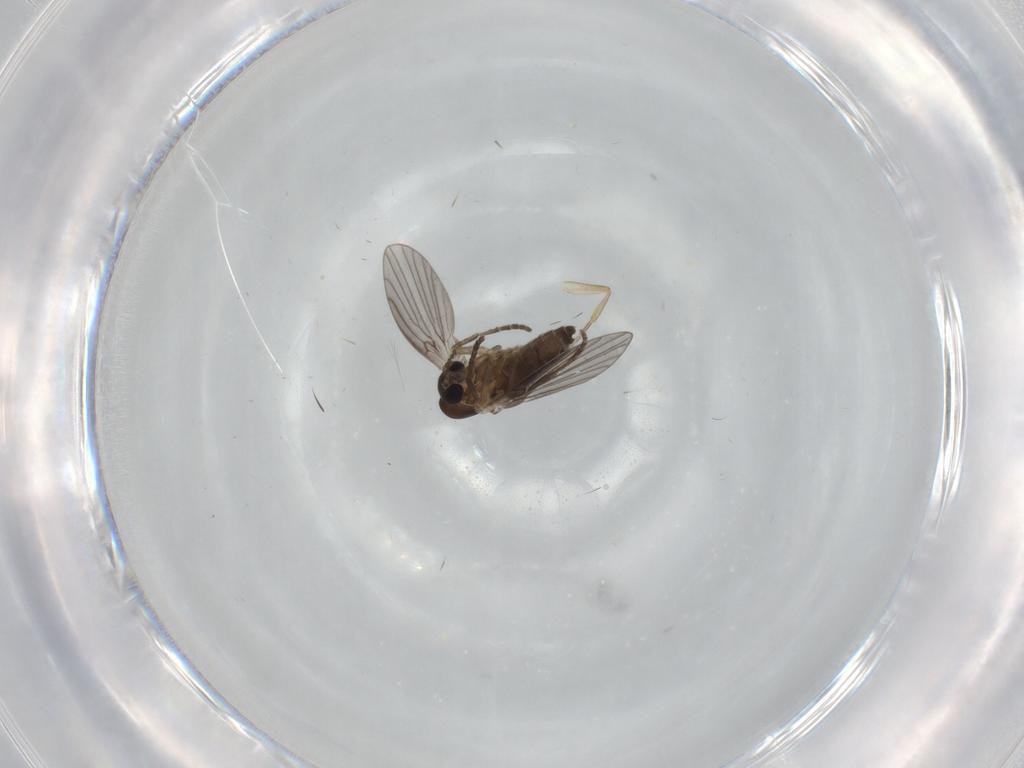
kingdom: Animalia
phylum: Arthropoda
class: Insecta
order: Diptera
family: Phoridae
